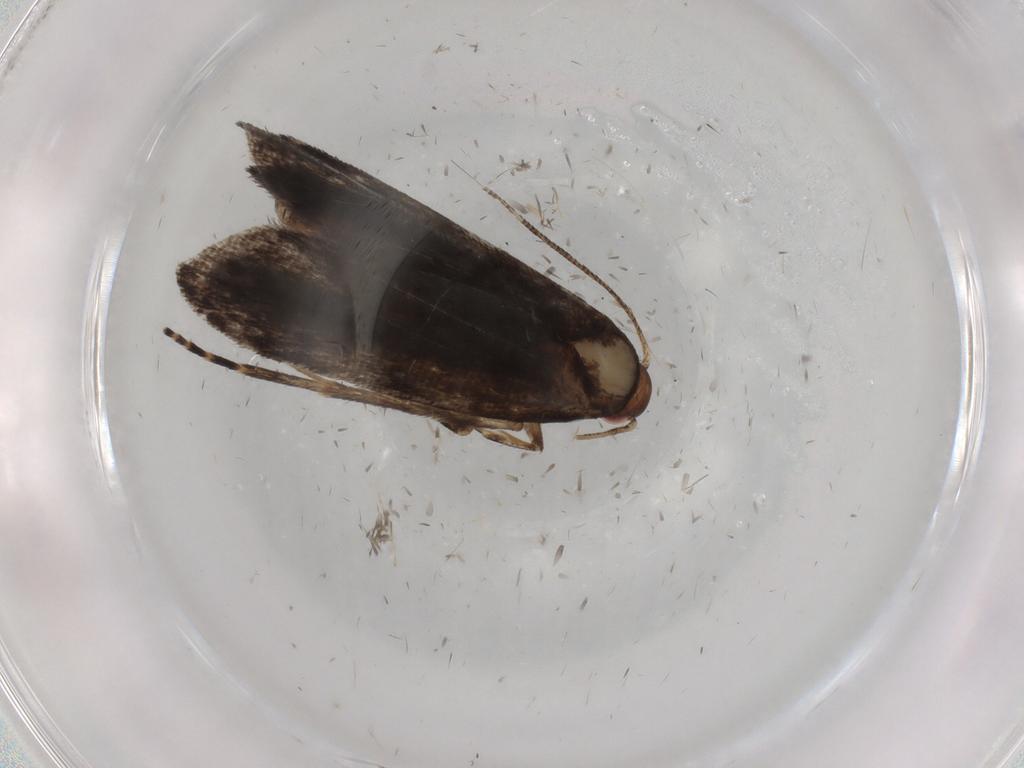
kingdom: Animalia
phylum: Arthropoda
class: Insecta
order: Lepidoptera
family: Gelechiidae
